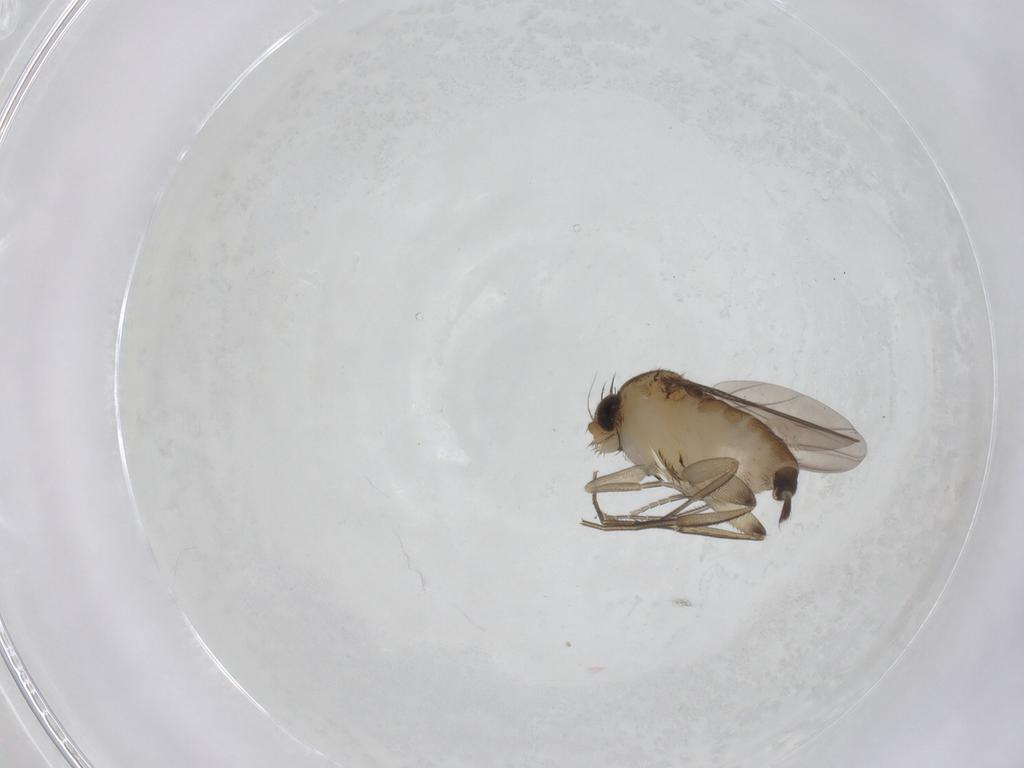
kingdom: Animalia
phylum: Arthropoda
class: Insecta
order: Diptera
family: Phoridae
